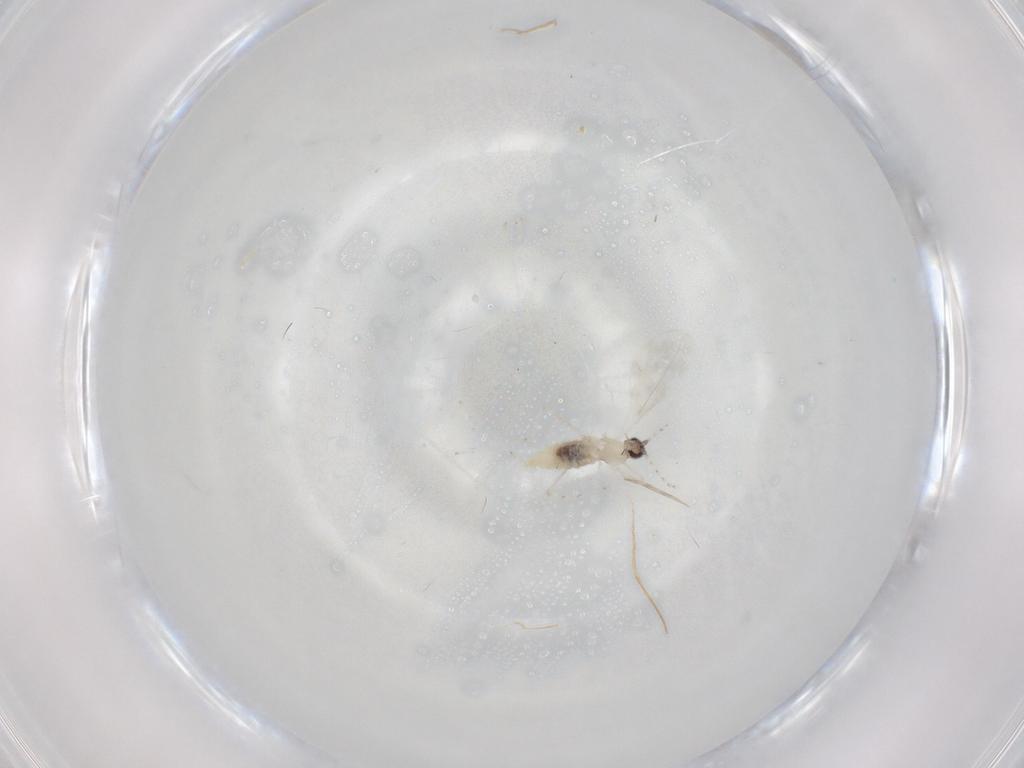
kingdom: Animalia
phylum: Arthropoda
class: Insecta
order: Diptera
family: Cecidomyiidae
